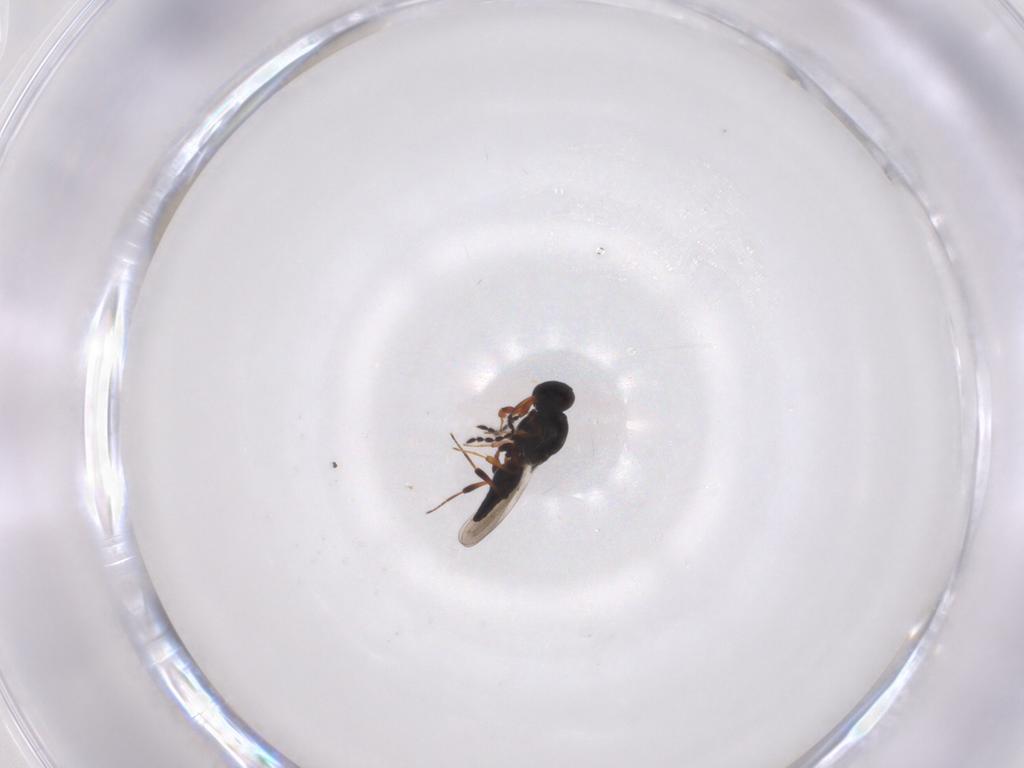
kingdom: Animalia
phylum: Arthropoda
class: Insecta
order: Hymenoptera
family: Platygastridae
